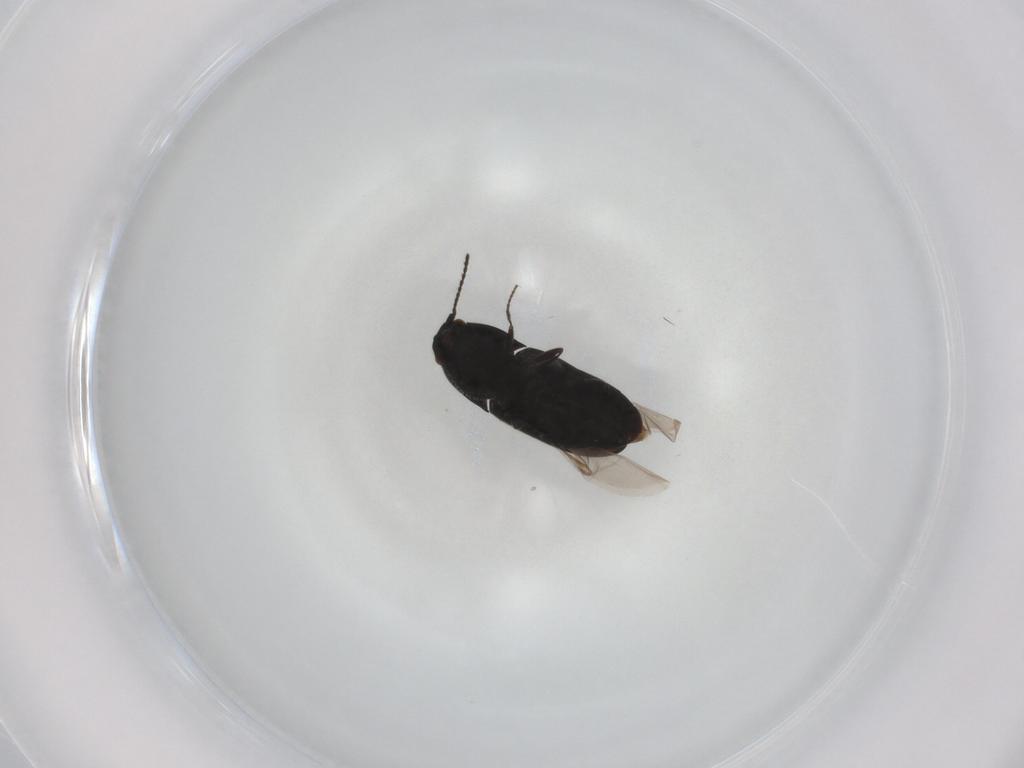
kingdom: Animalia
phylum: Arthropoda
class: Insecta
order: Coleoptera
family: Elateridae
